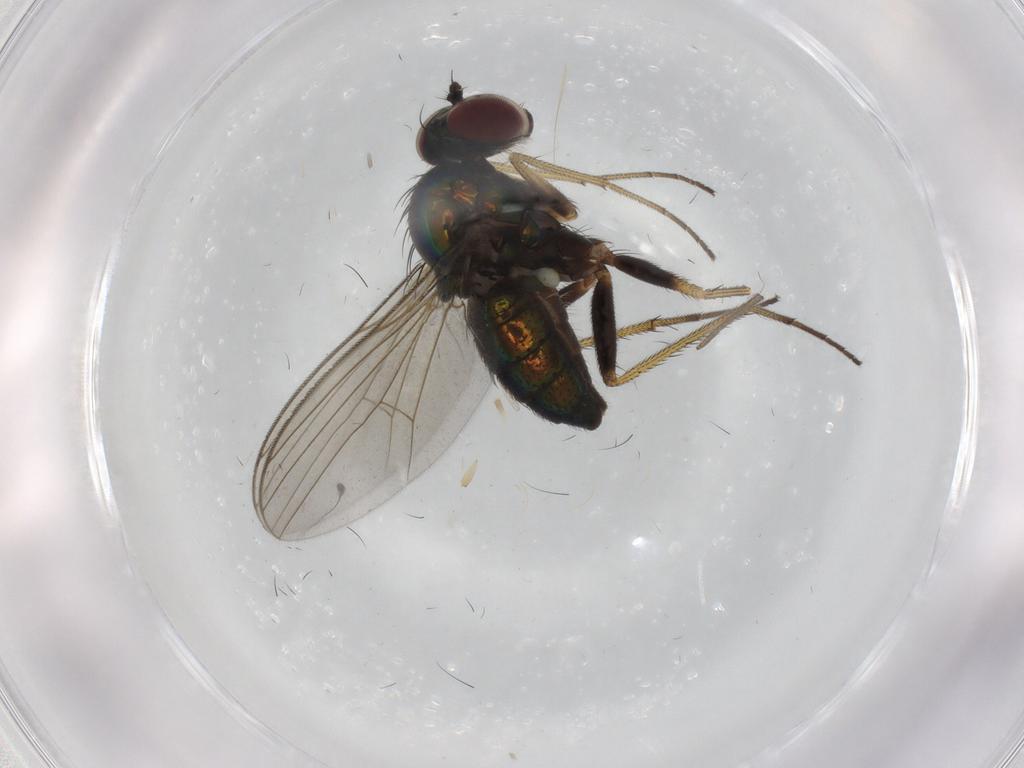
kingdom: Animalia
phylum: Arthropoda
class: Insecta
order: Diptera
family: Dolichopodidae
